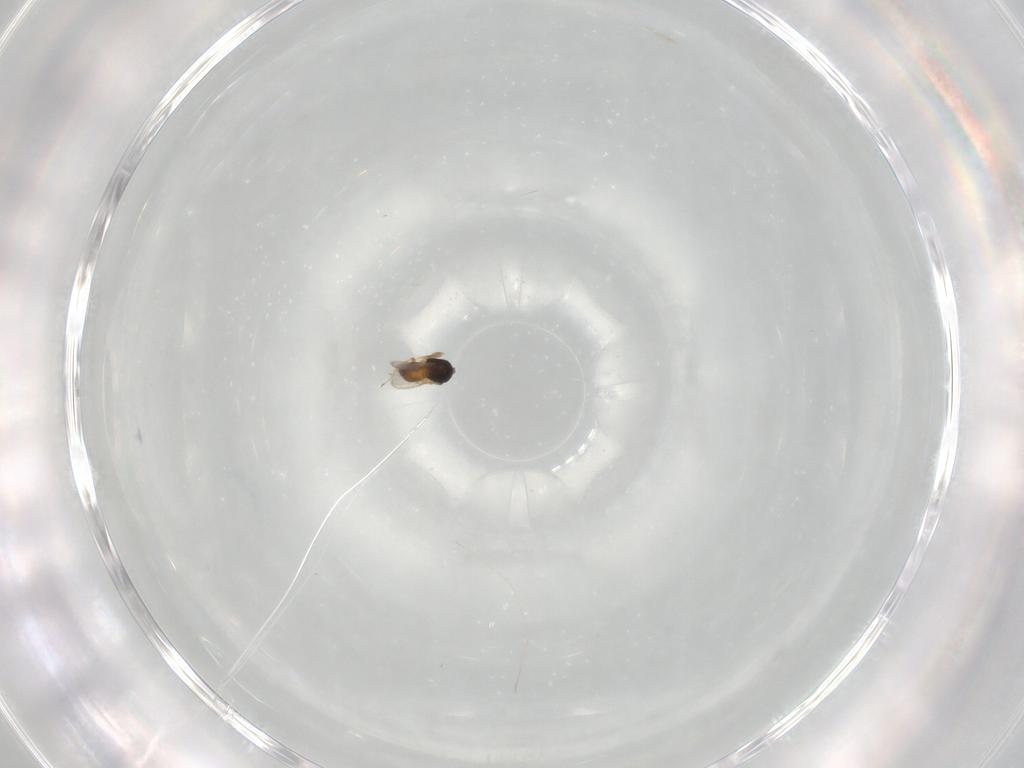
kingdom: Animalia
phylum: Arthropoda
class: Insecta
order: Hymenoptera
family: Scelionidae
